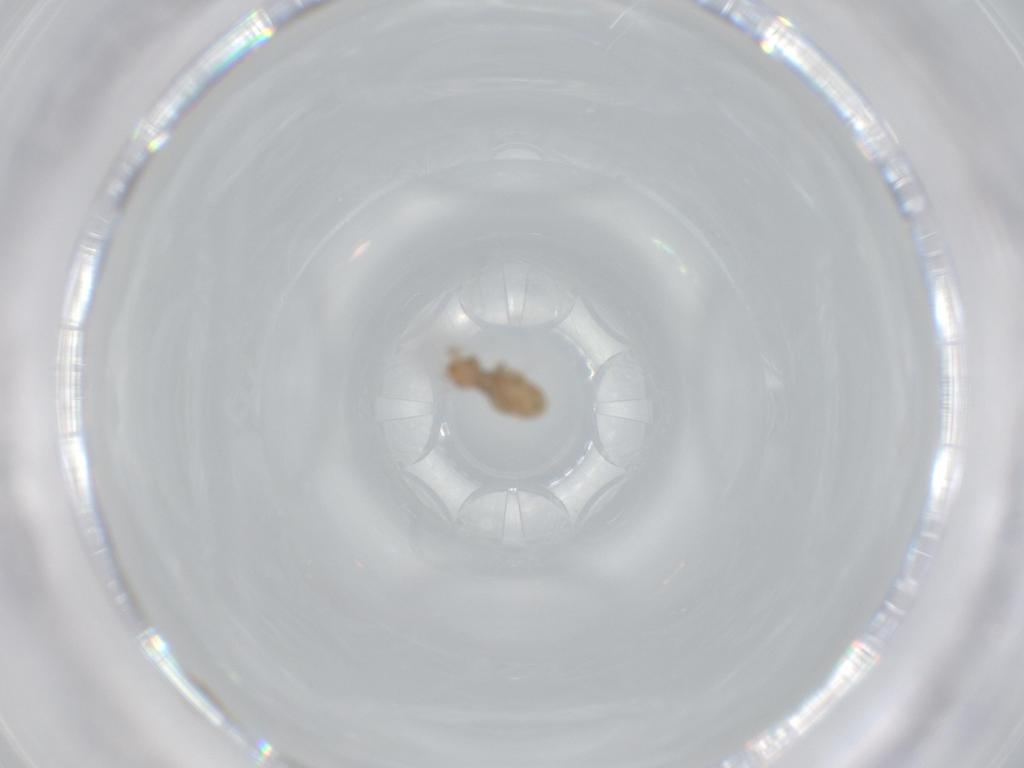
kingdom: Animalia
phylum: Arthropoda
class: Insecta
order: Psocodea
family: Liposcelididae
